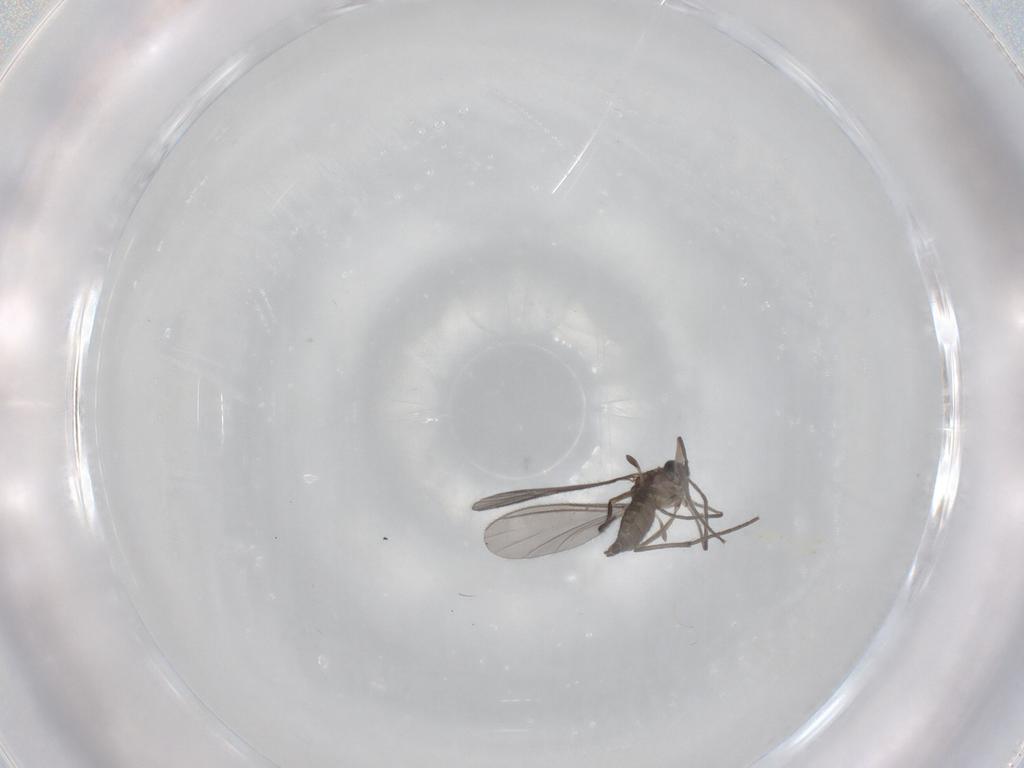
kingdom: Animalia
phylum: Arthropoda
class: Insecta
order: Diptera
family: Sciaridae
